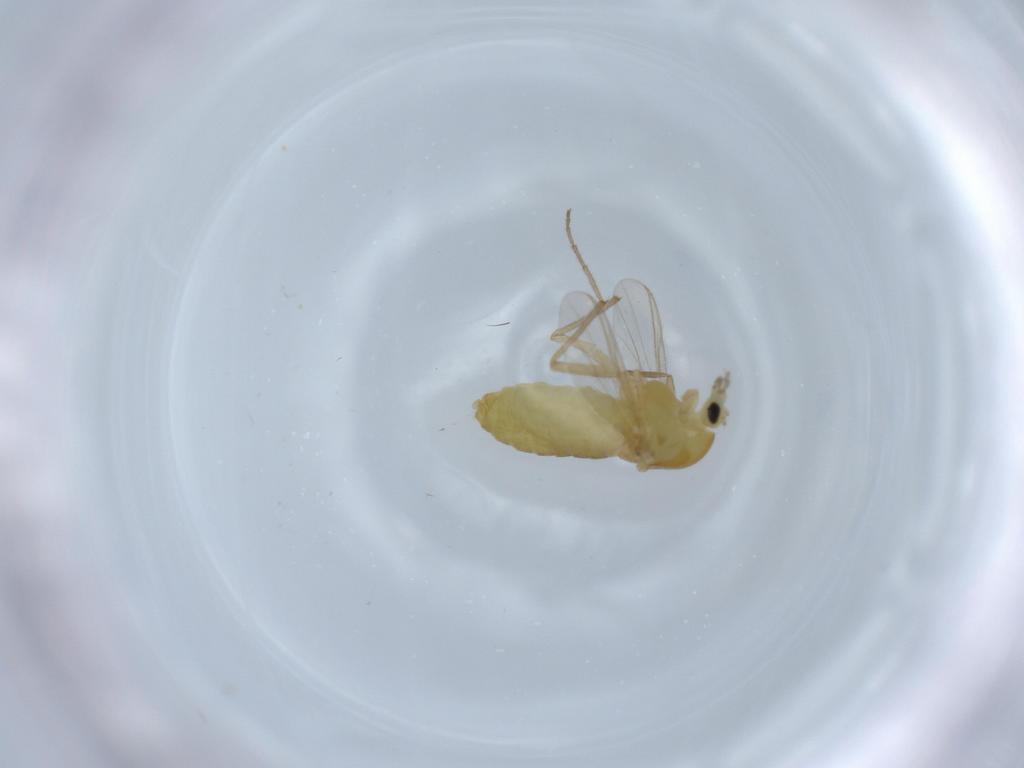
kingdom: Animalia
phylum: Arthropoda
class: Insecta
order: Diptera
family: Chironomidae
